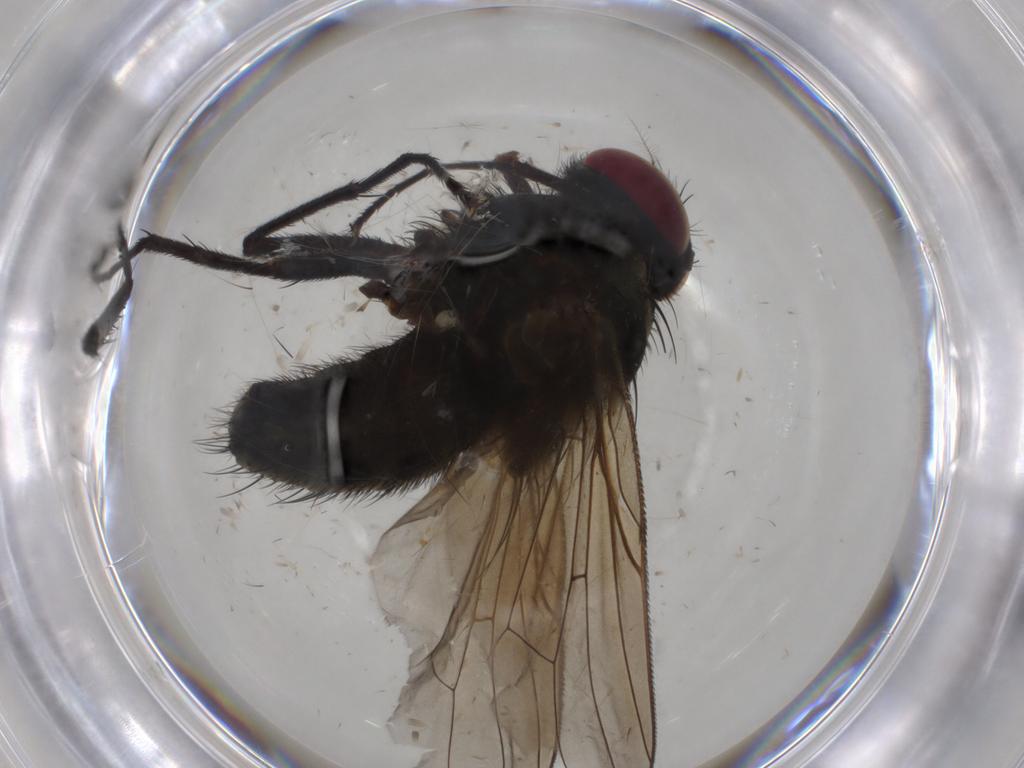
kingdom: Animalia
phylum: Arthropoda
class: Insecta
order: Diptera
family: Muscidae
